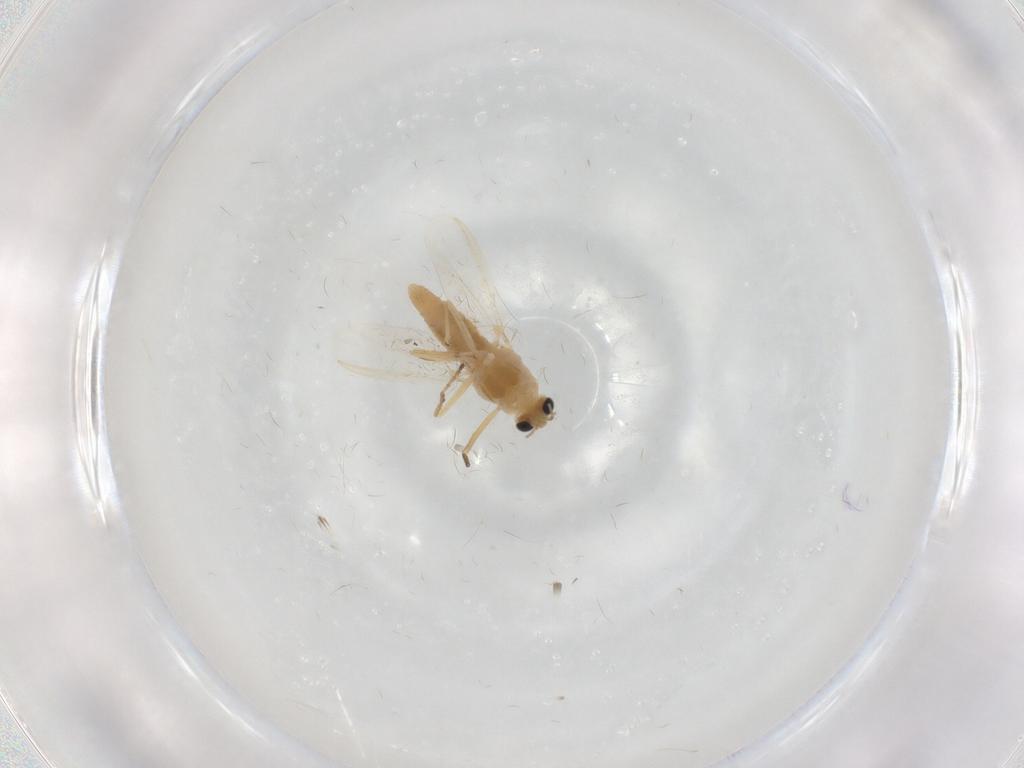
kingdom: Animalia
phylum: Arthropoda
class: Insecta
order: Diptera
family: Chironomidae
